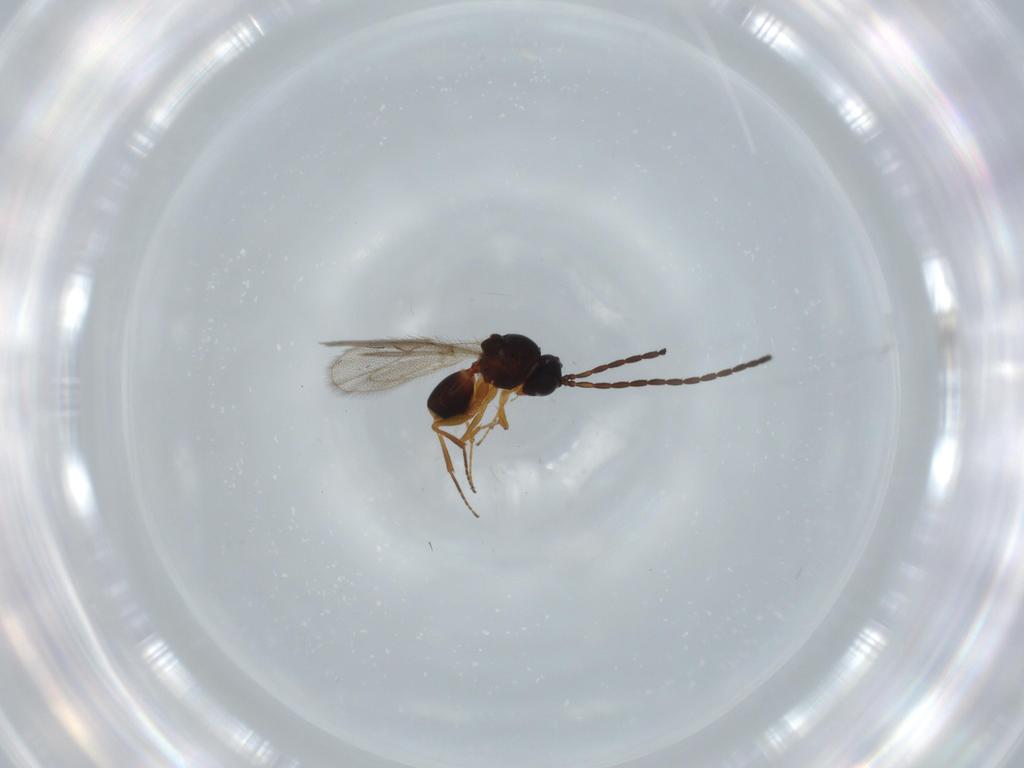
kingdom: Animalia
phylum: Arthropoda
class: Insecta
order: Hymenoptera
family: Figitidae
